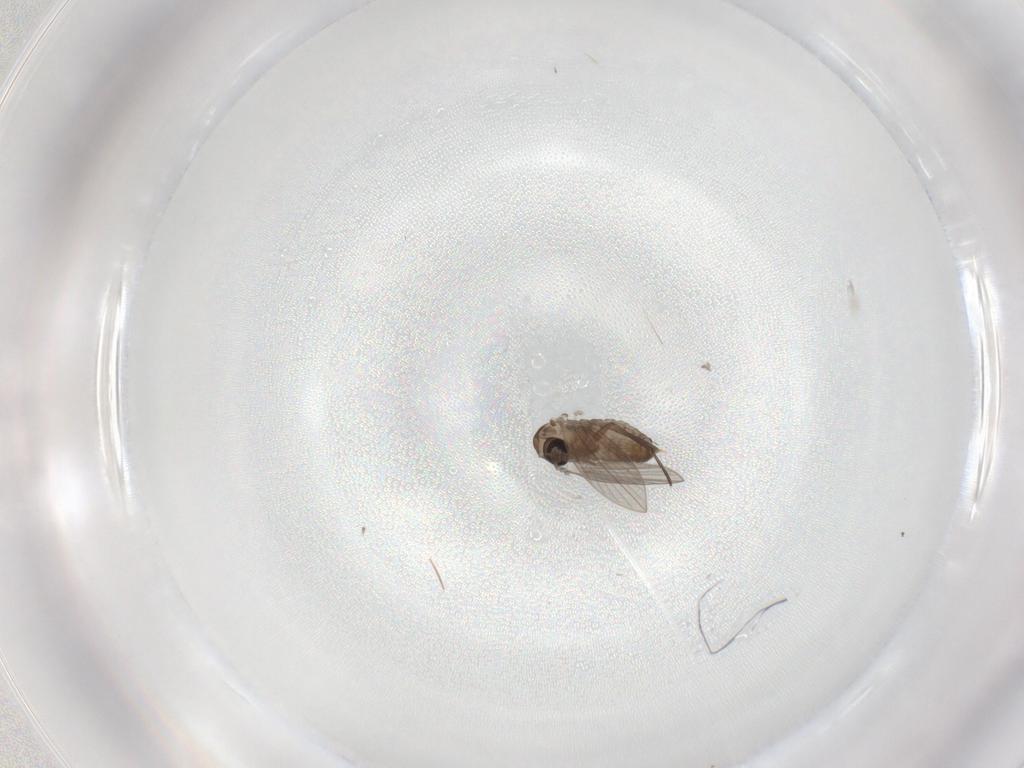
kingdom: Animalia
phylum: Arthropoda
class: Insecta
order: Diptera
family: Psychodidae
